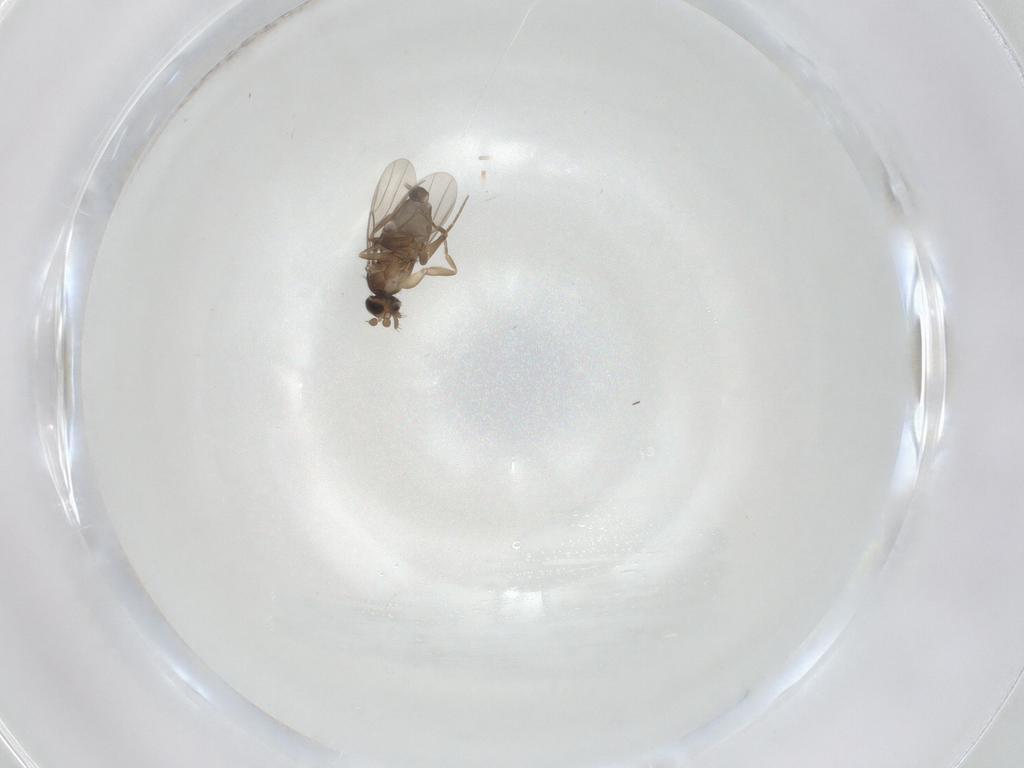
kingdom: Animalia
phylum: Arthropoda
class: Insecta
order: Diptera
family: Phoridae
